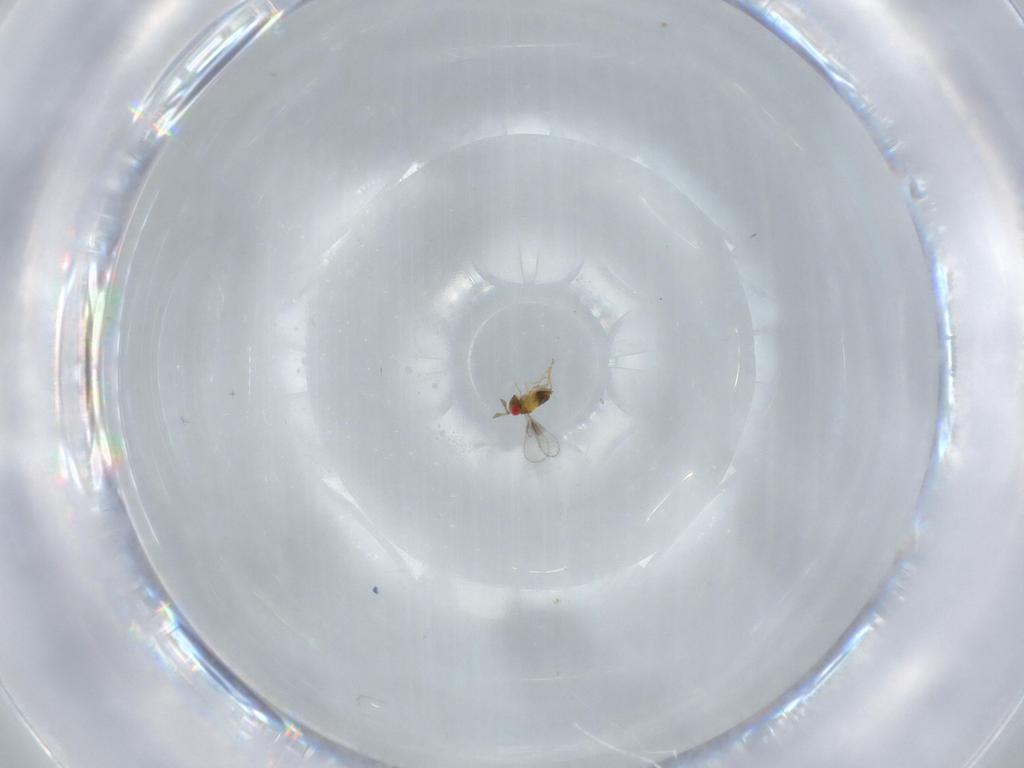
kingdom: Animalia
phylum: Arthropoda
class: Insecta
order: Hymenoptera
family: Trichogrammatidae
